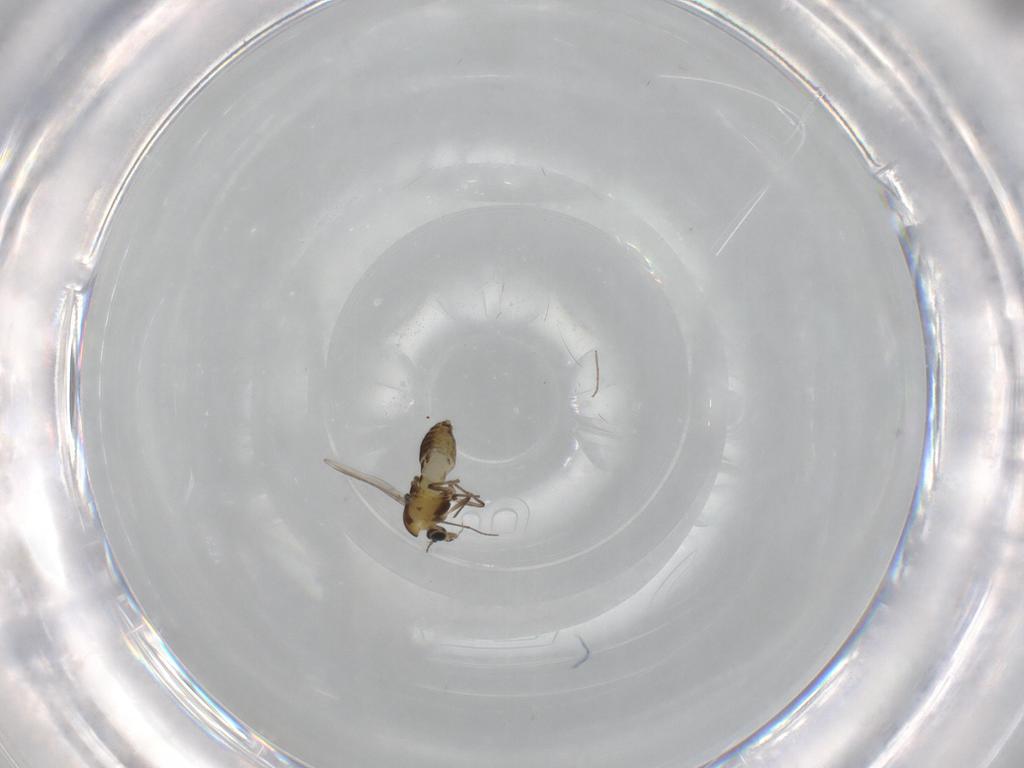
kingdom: Animalia
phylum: Arthropoda
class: Insecta
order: Diptera
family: Chironomidae
